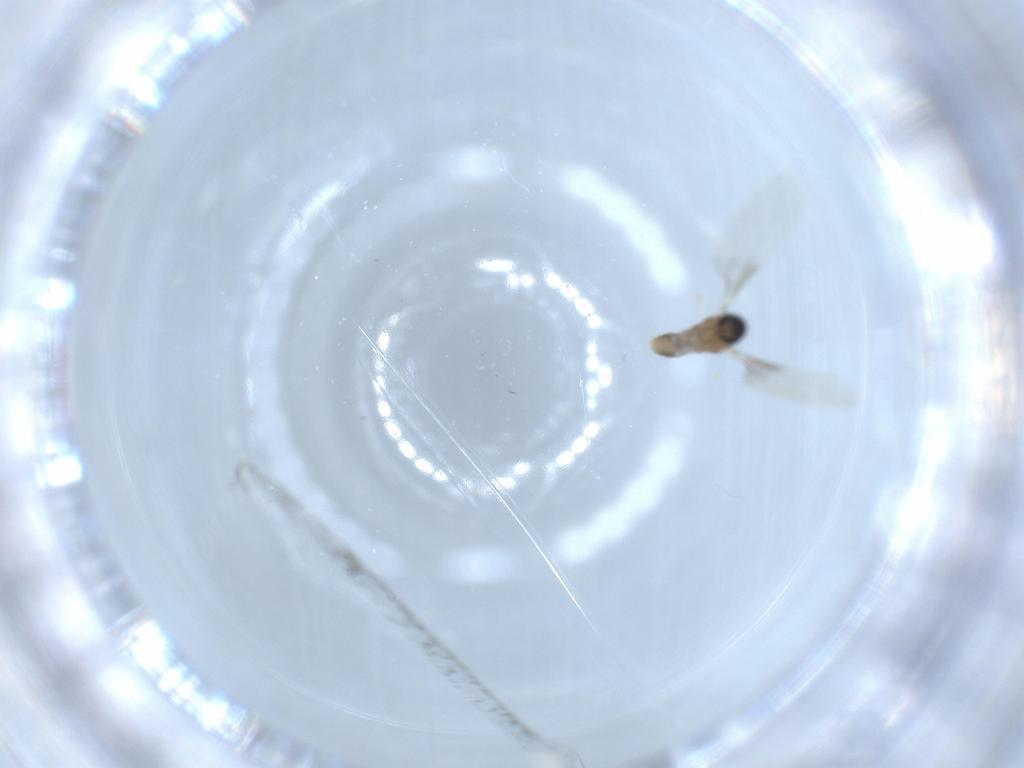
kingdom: Animalia
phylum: Arthropoda
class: Insecta
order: Diptera
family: Cecidomyiidae
